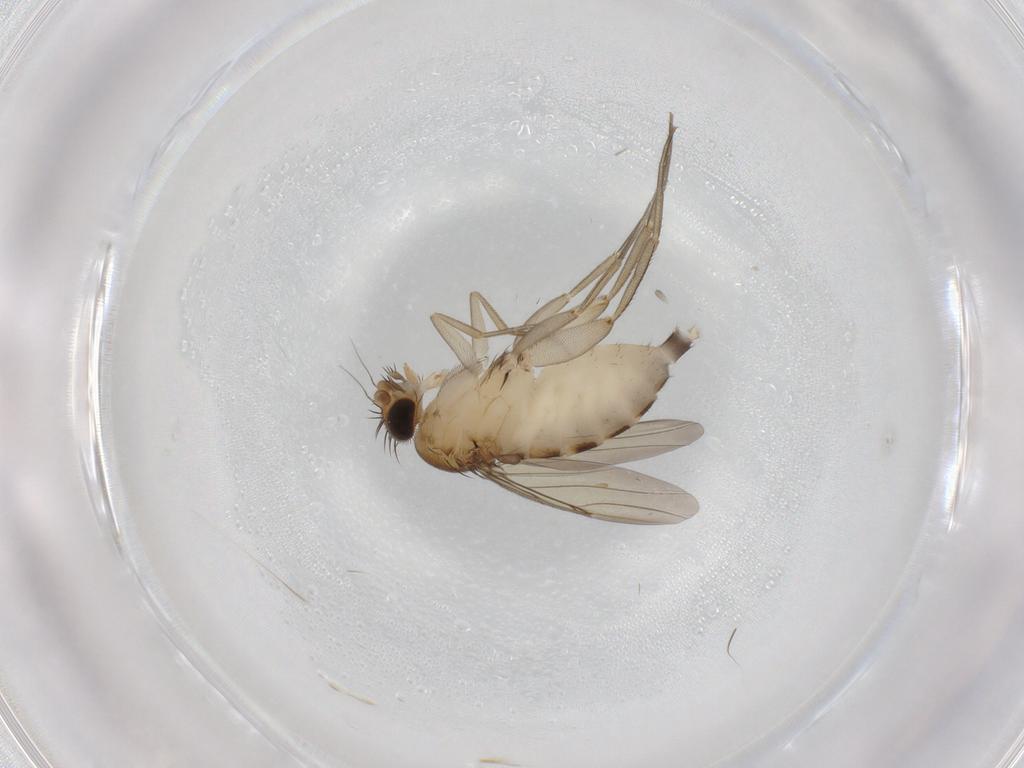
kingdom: Animalia
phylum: Arthropoda
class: Insecta
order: Diptera
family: Phoridae
